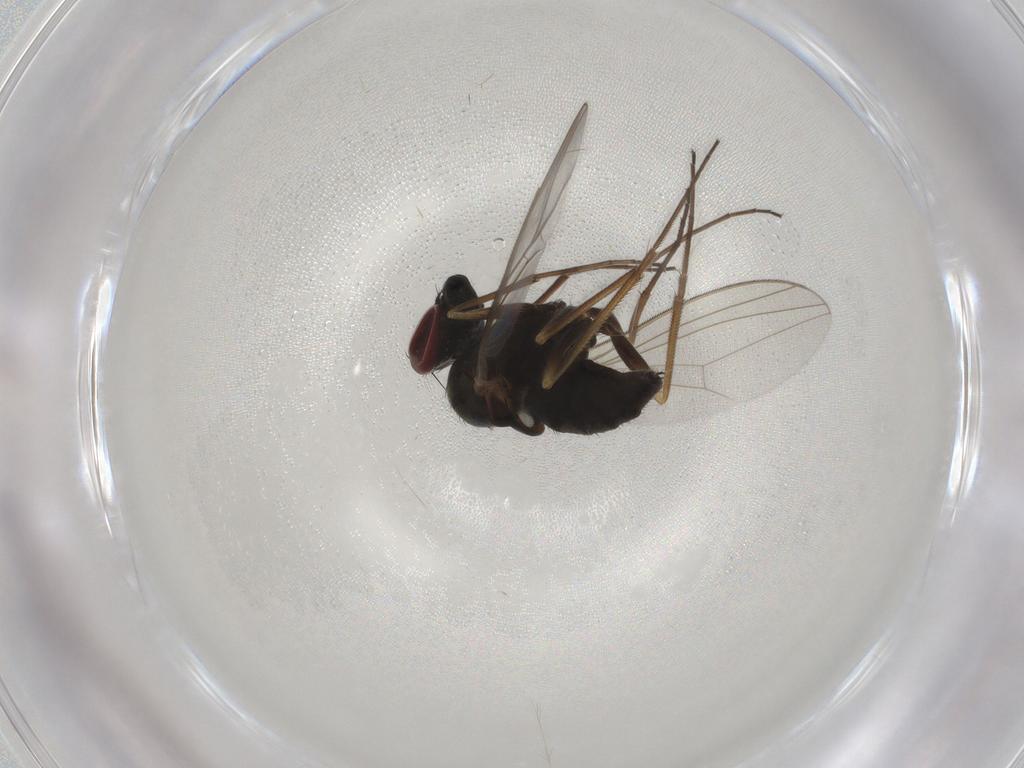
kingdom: Animalia
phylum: Arthropoda
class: Insecta
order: Diptera
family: Dolichopodidae
